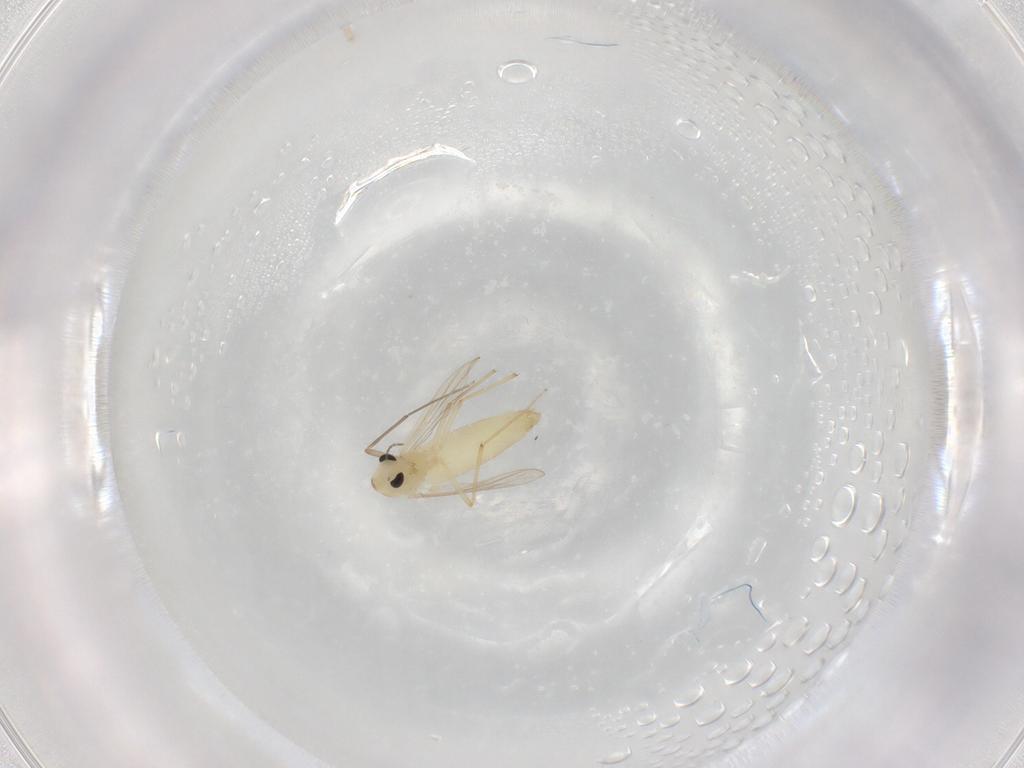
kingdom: Animalia
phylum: Arthropoda
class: Insecta
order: Diptera
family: Chironomidae
